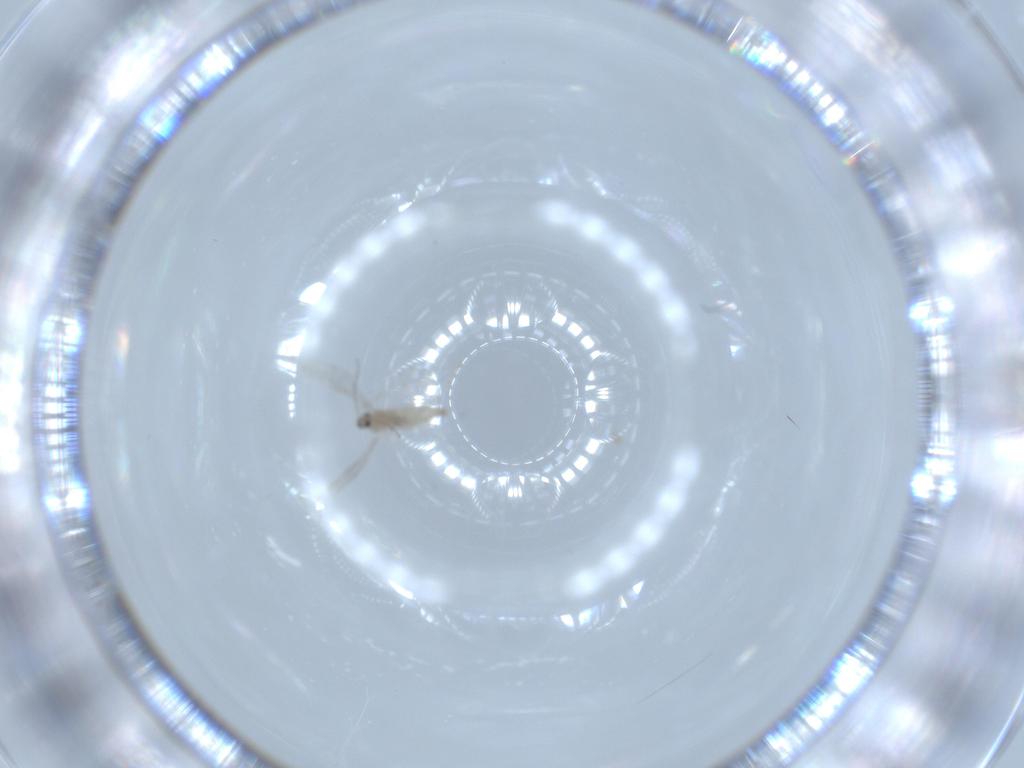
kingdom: Animalia
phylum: Arthropoda
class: Insecta
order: Diptera
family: Cecidomyiidae
